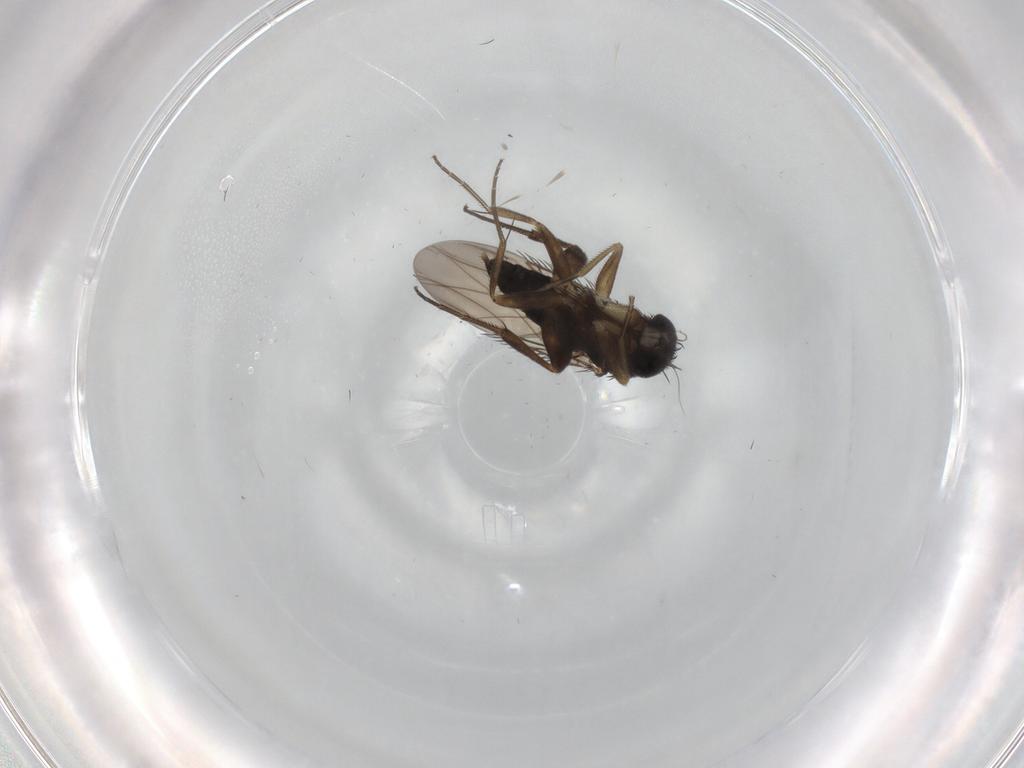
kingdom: Animalia
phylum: Arthropoda
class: Insecta
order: Diptera
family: Phoridae
